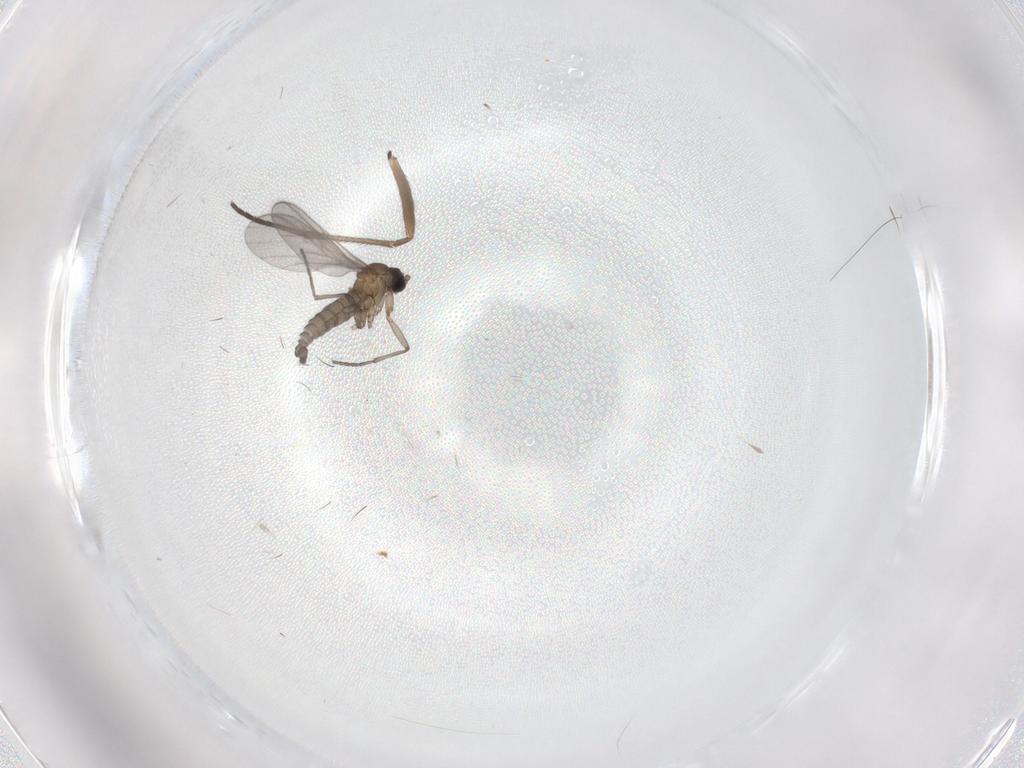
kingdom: Animalia
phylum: Arthropoda
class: Insecta
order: Diptera
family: Sciaridae
